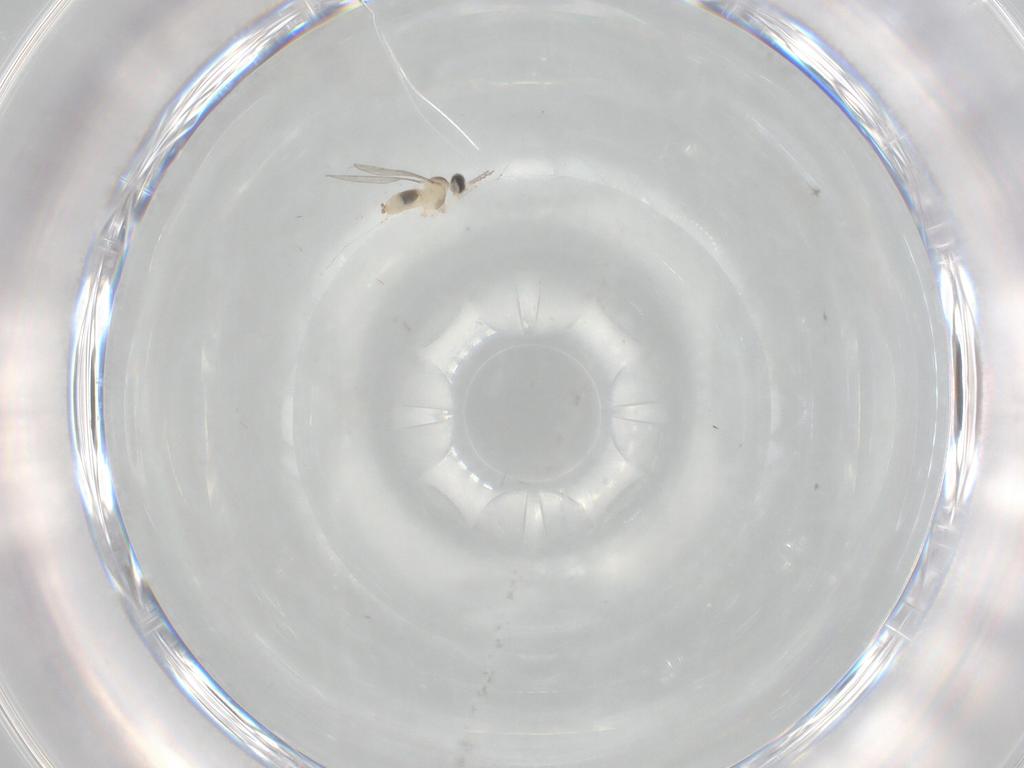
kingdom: Animalia
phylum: Arthropoda
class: Insecta
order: Diptera
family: Cecidomyiidae
